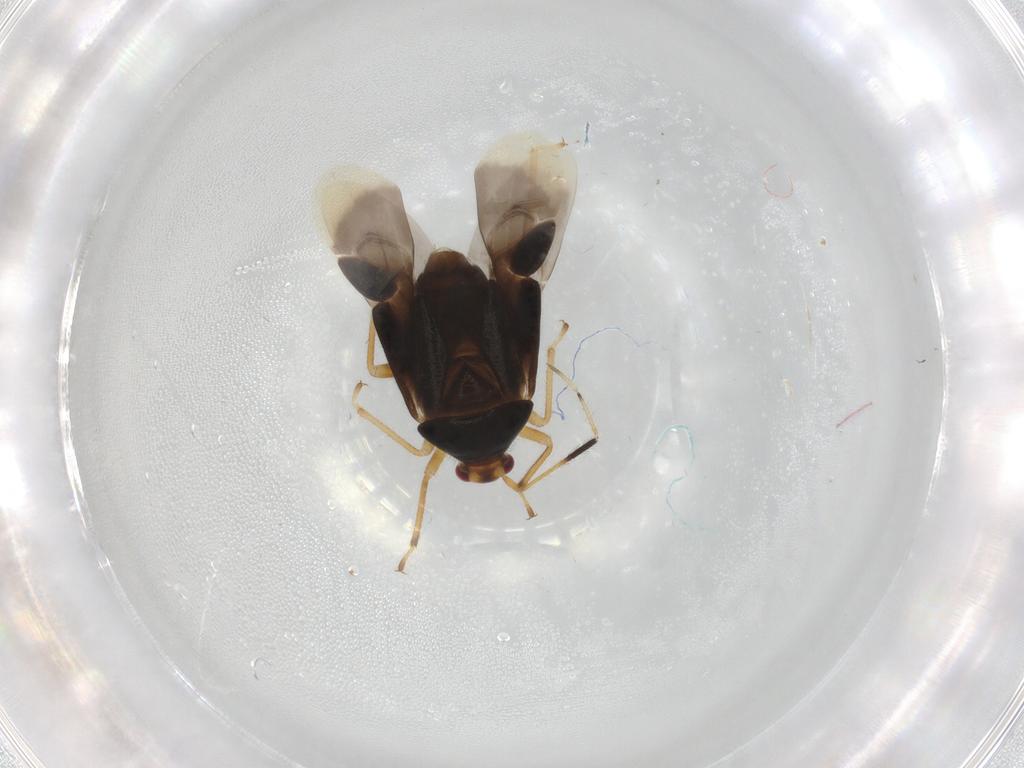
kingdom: Animalia
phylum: Arthropoda
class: Insecta
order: Hemiptera
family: Miridae
